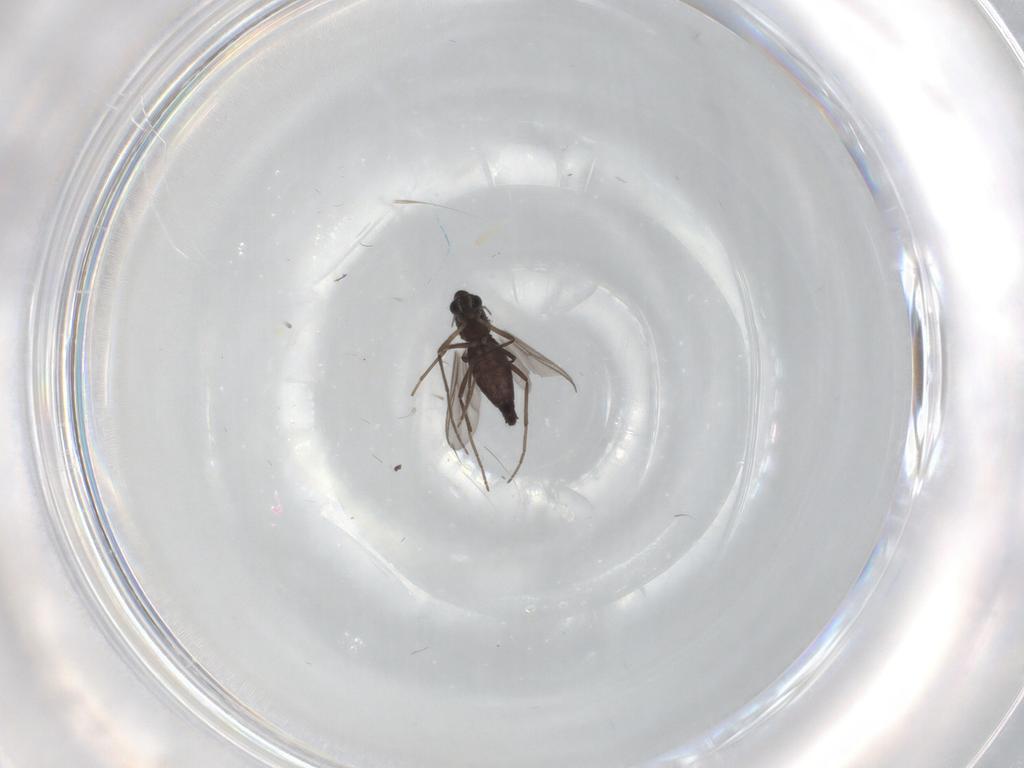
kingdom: Animalia
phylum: Arthropoda
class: Insecta
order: Diptera
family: Chironomidae
